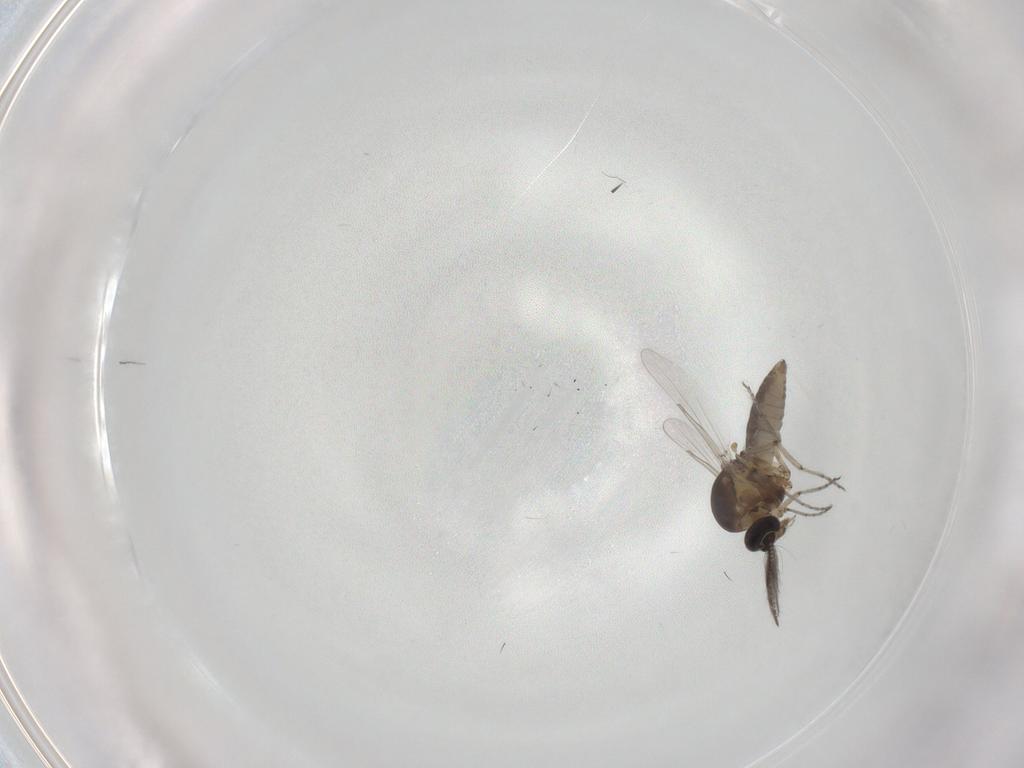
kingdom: Animalia
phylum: Arthropoda
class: Insecta
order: Diptera
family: Ceratopogonidae
